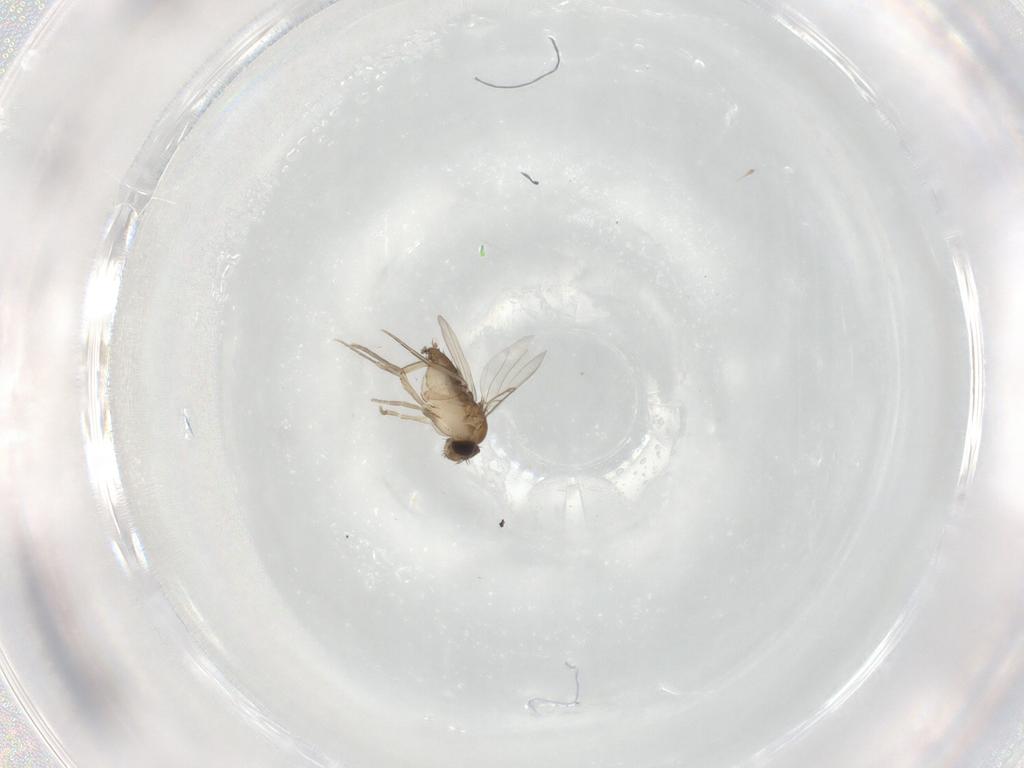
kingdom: Animalia
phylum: Arthropoda
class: Insecta
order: Diptera
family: Phoridae
